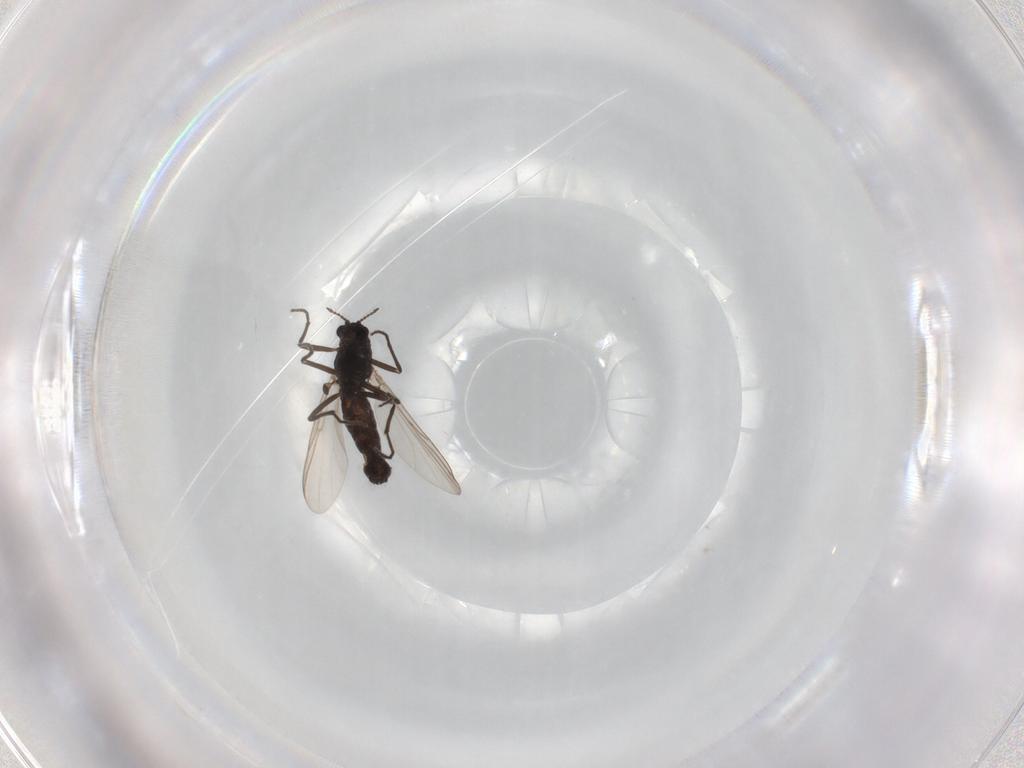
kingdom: Animalia
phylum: Arthropoda
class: Insecta
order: Diptera
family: Chironomidae
